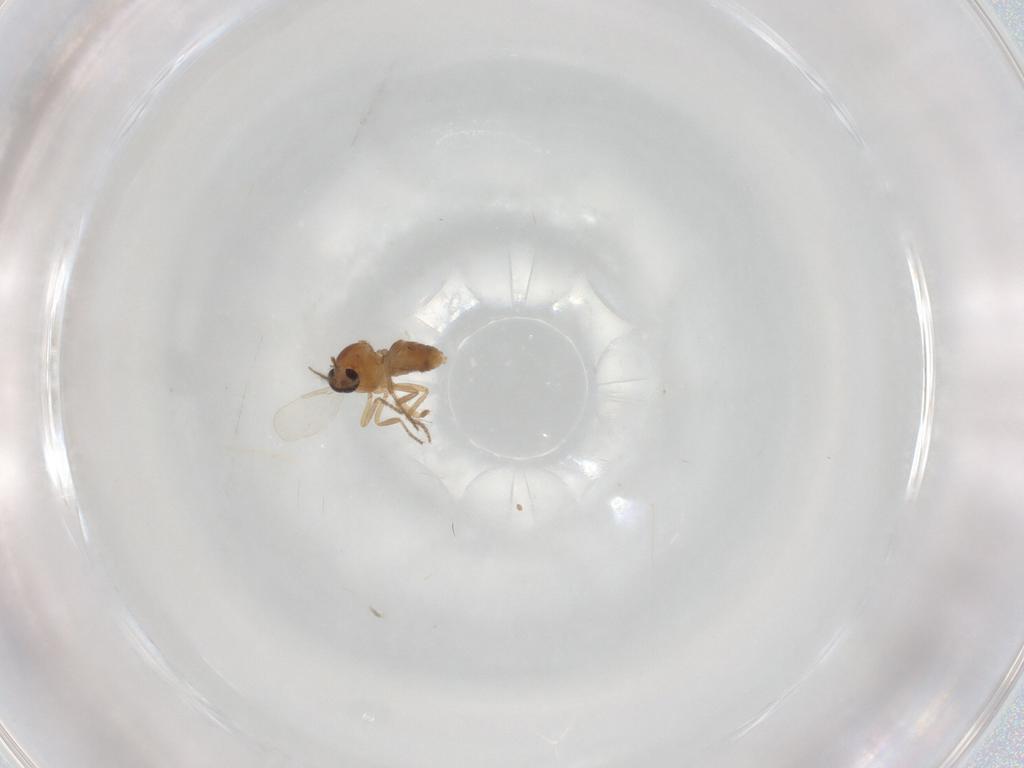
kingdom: Animalia
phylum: Arthropoda
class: Insecta
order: Diptera
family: Ceratopogonidae
